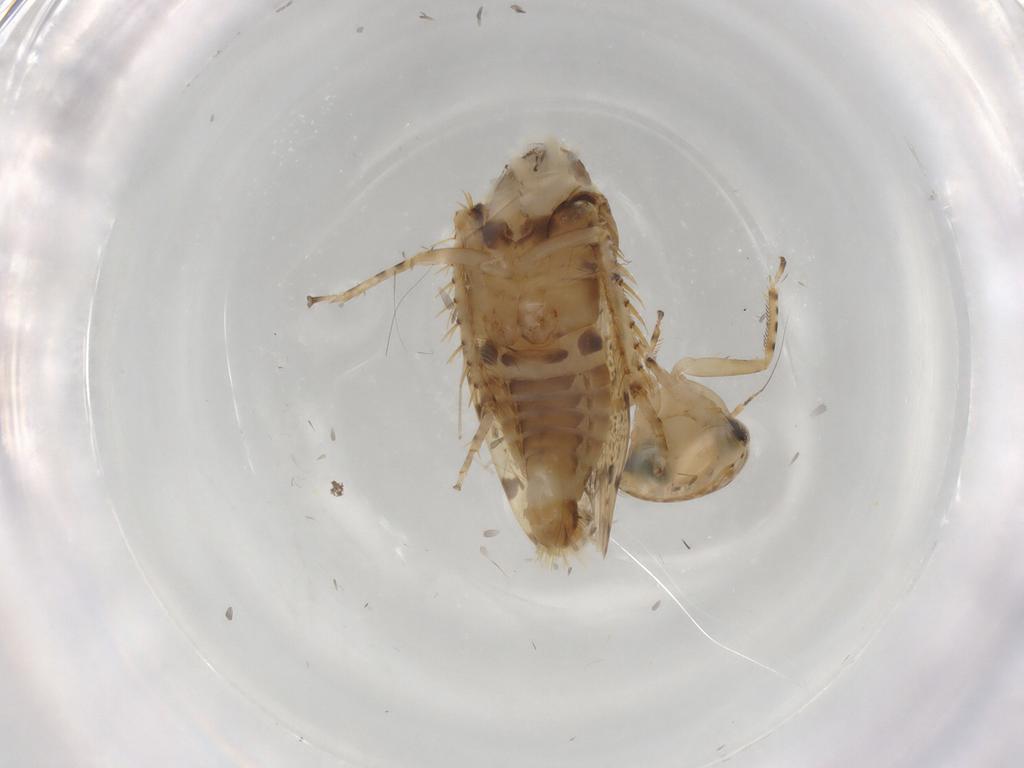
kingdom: Animalia
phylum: Arthropoda
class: Insecta
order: Hemiptera
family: Cicadellidae
